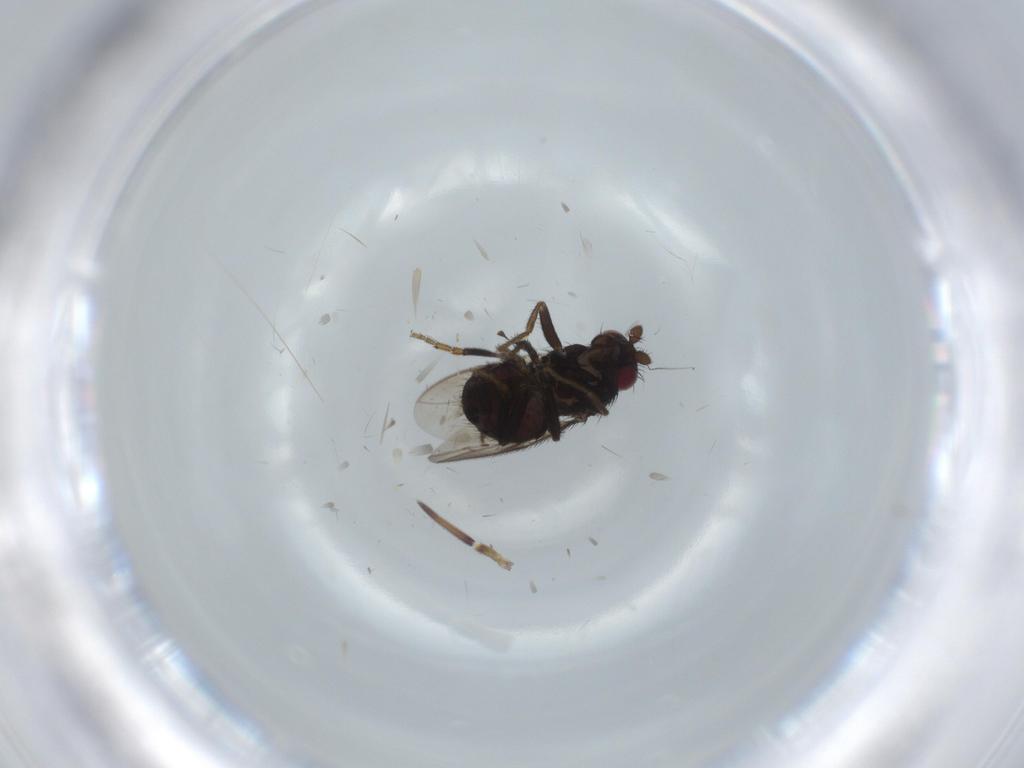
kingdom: Animalia
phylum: Arthropoda
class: Insecta
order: Diptera
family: Sphaeroceridae
